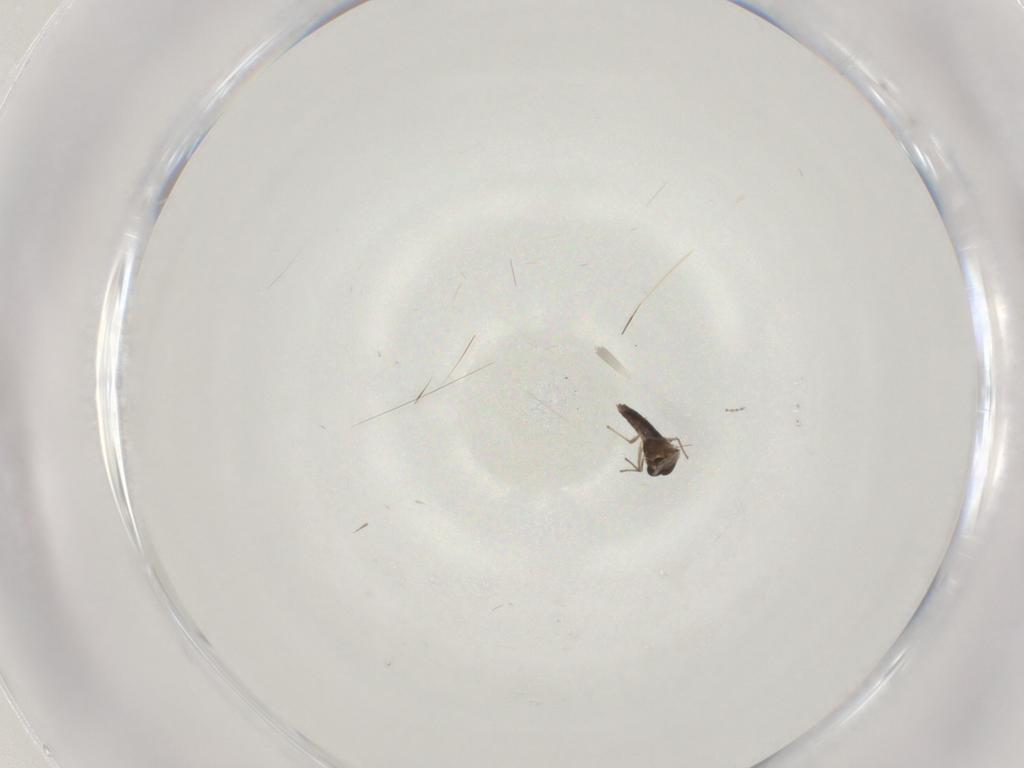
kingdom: Animalia
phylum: Arthropoda
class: Insecta
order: Diptera
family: Chironomidae
